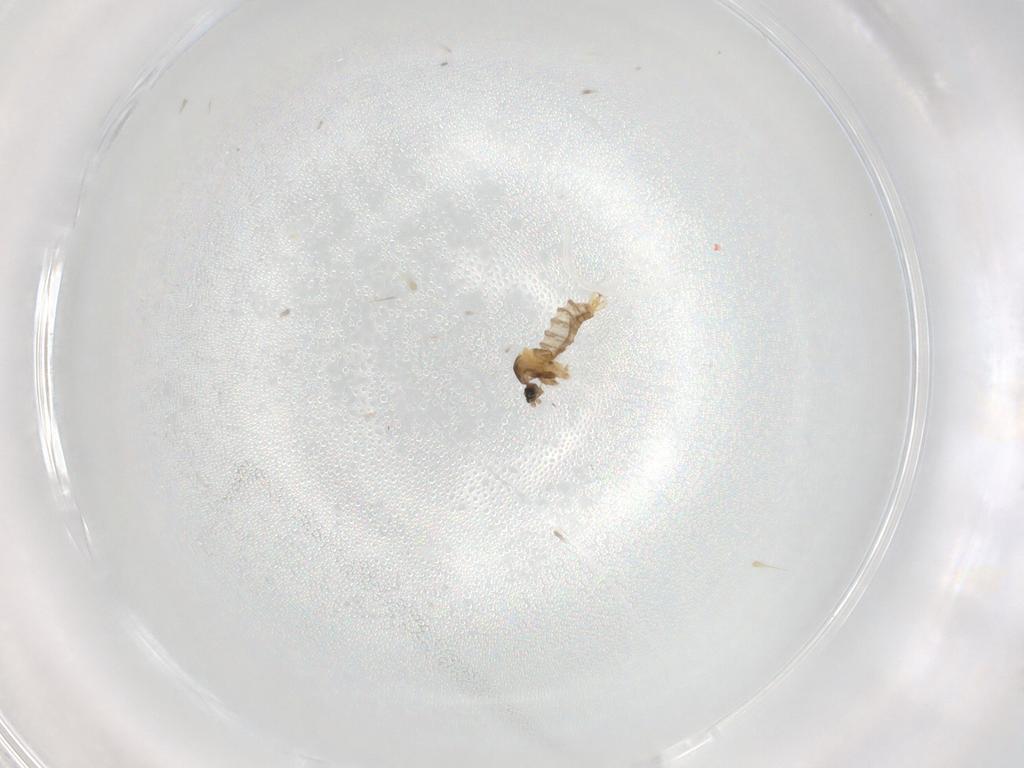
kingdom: Animalia
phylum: Arthropoda
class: Insecta
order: Diptera
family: Cecidomyiidae
